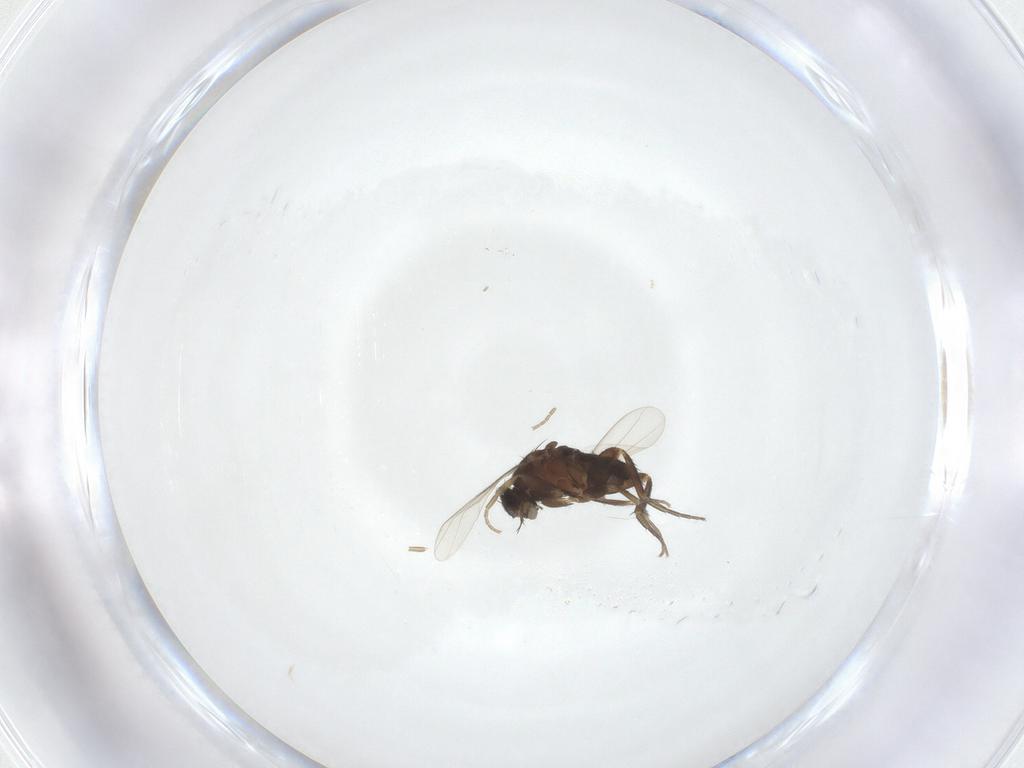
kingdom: Animalia
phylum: Arthropoda
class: Insecta
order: Diptera
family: Phoridae
